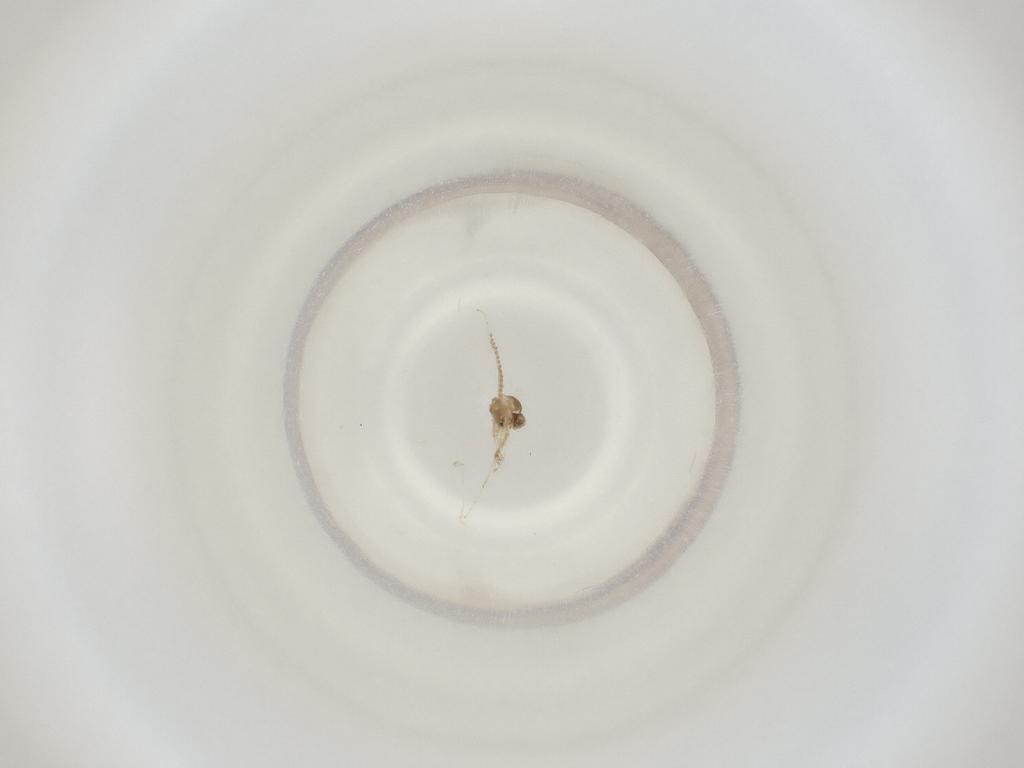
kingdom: Animalia
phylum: Arthropoda
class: Insecta
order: Diptera
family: Cecidomyiidae
